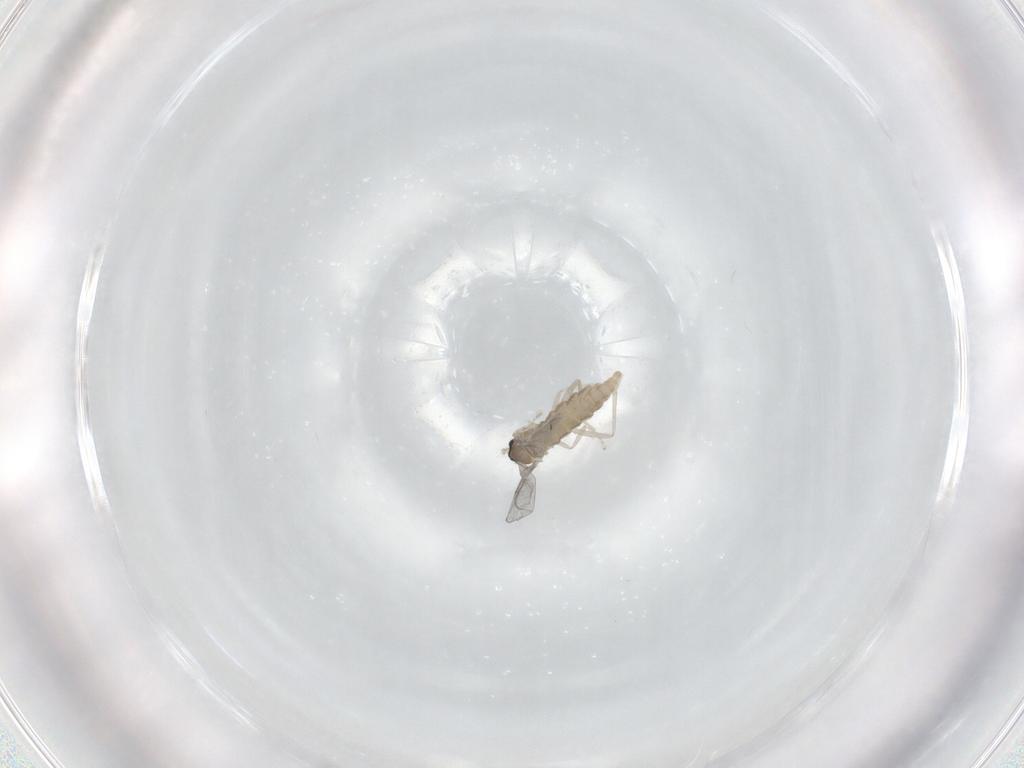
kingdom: Animalia
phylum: Arthropoda
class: Insecta
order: Diptera
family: Cecidomyiidae
